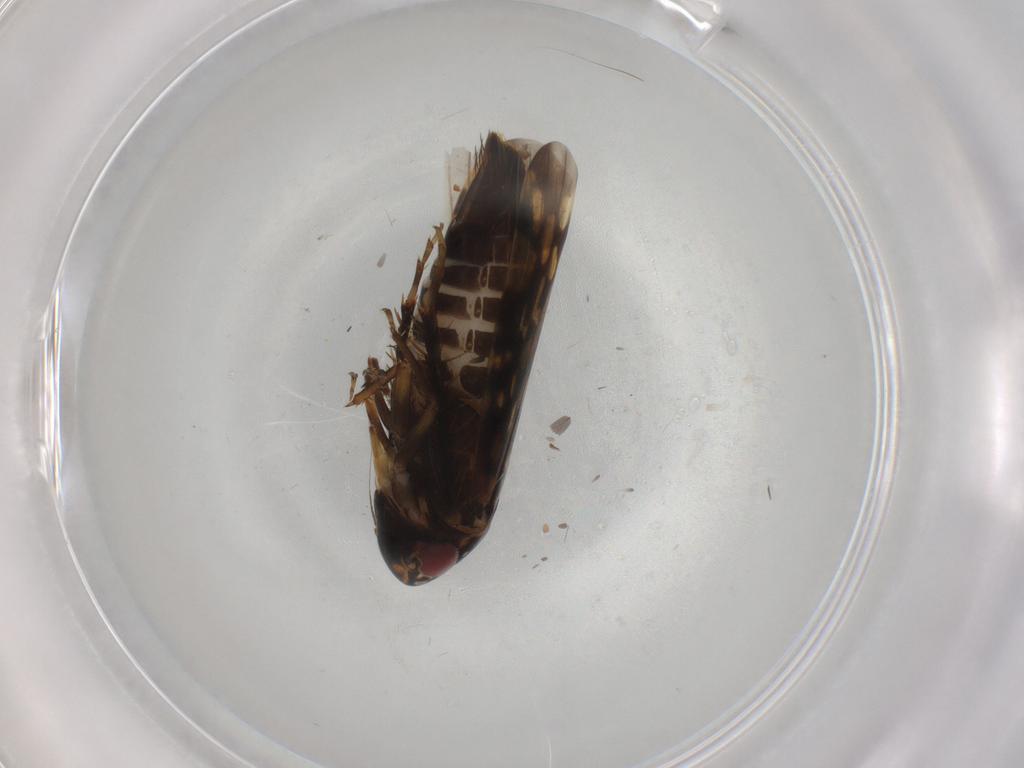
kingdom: Animalia
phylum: Arthropoda
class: Insecta
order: Hemiptera
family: Cicadellidae
